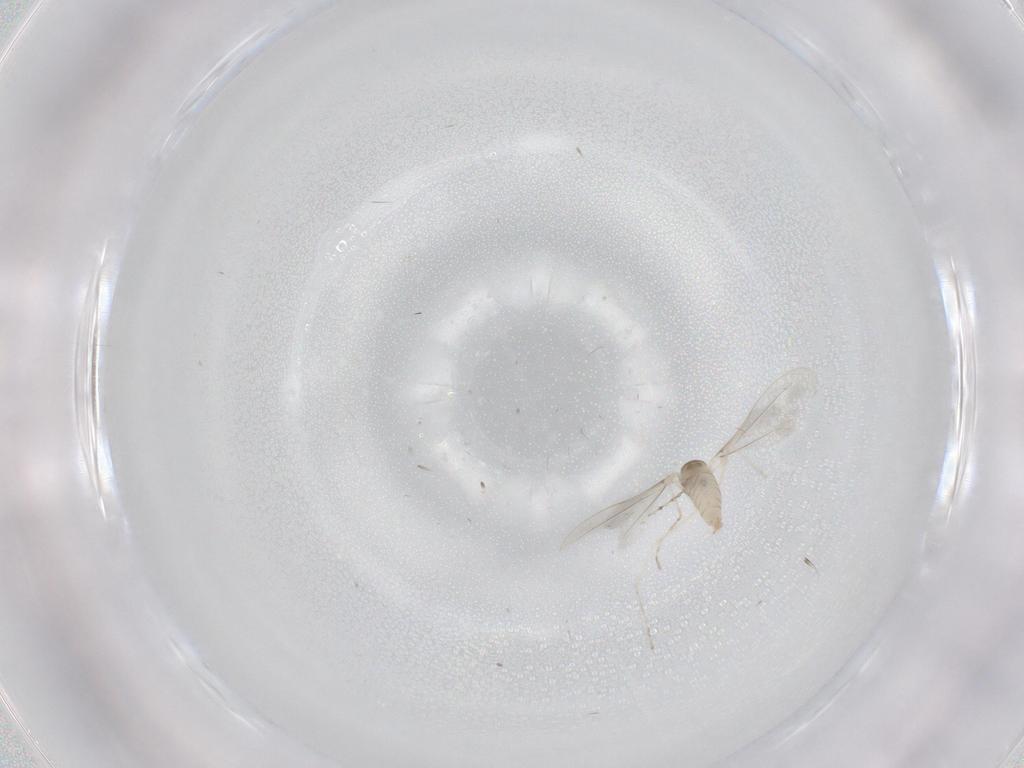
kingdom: Animalia
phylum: Arthropoda
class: Insecta
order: Diptera
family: Cecidomyiidae
